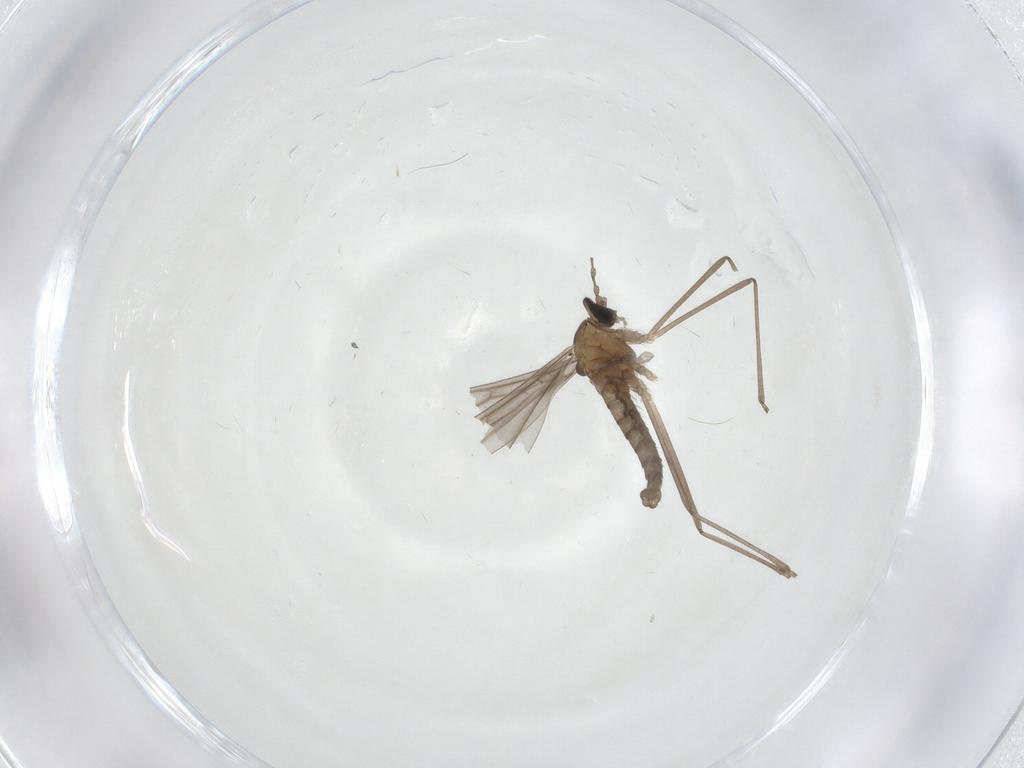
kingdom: Animalia
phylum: Arthropoda
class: Insecta
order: Diptera
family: Cecidomyiidae
